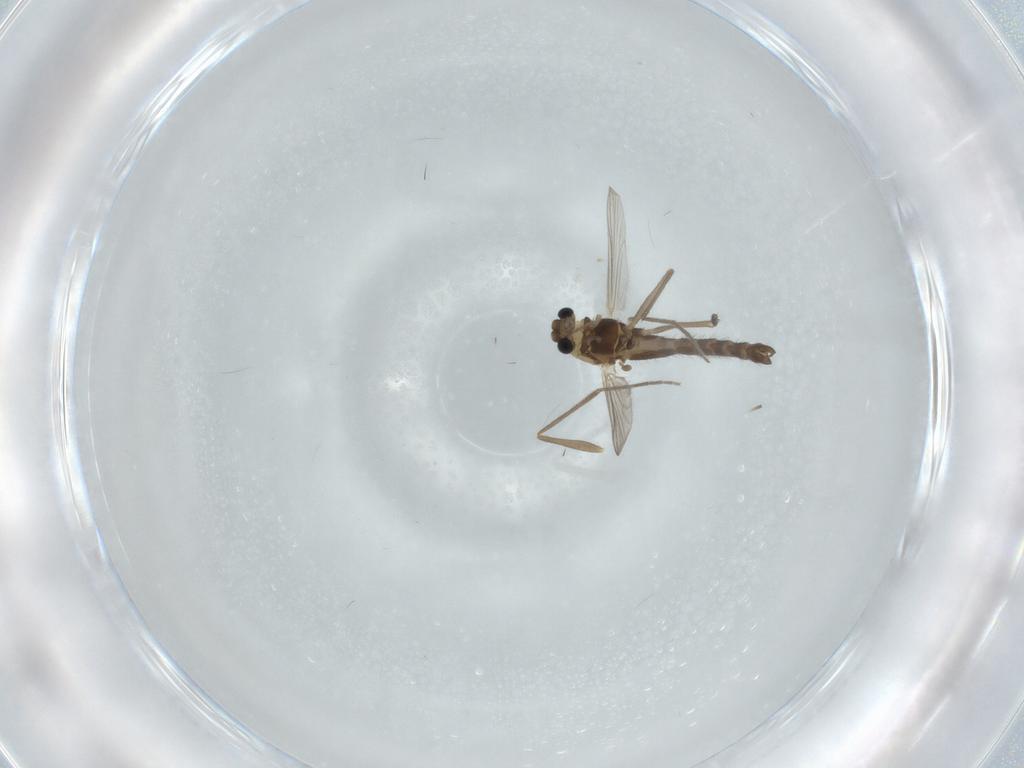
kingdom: Animalia
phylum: Arthropoda
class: Insecta
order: Diptera
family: Chironomidae
